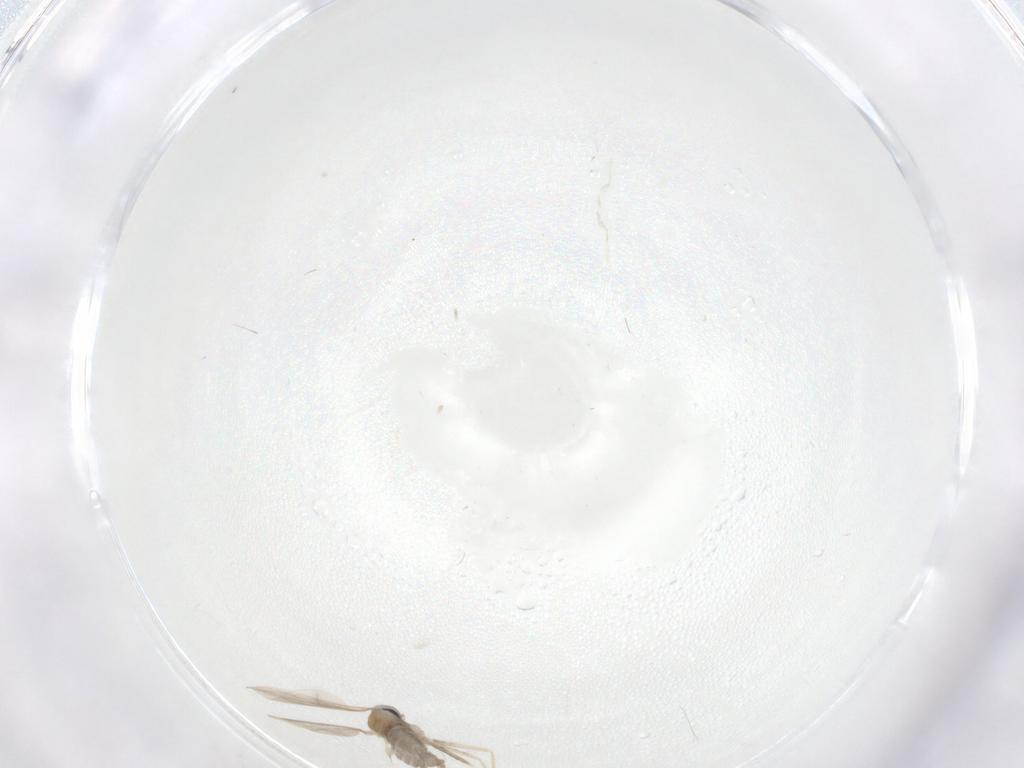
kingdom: Animalia
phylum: Arthropoda
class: Insecta
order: Diptera
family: Cecidomyiidae
